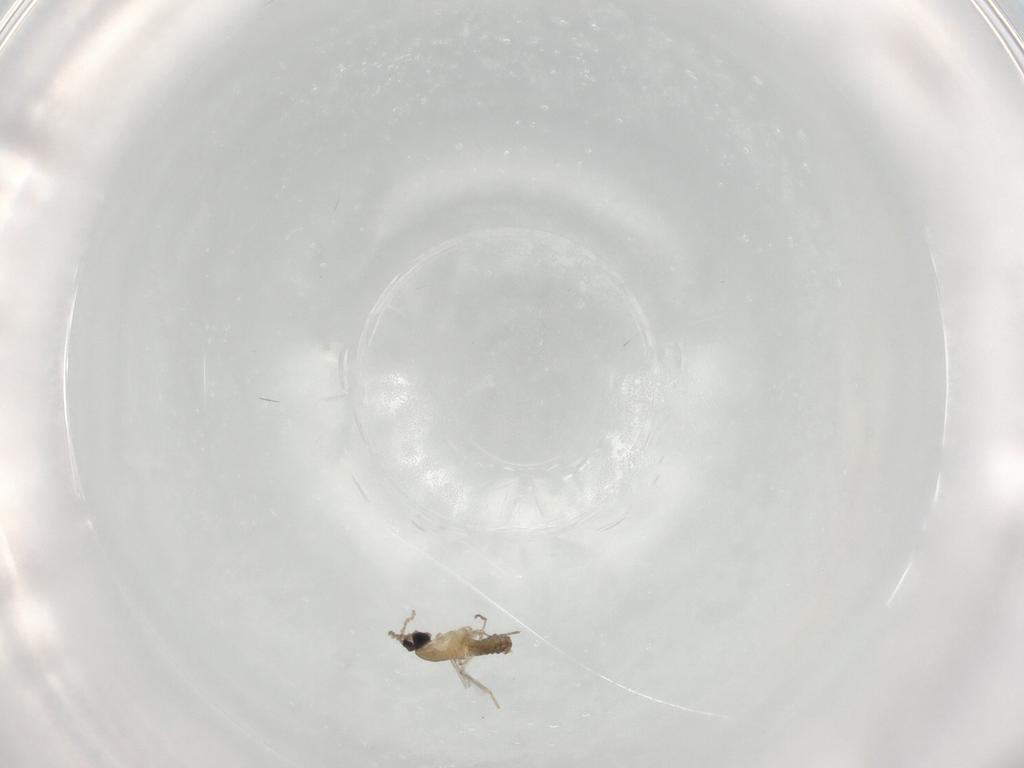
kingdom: Animalia
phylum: Arthropoda
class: Insecta
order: Diptera
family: Cecidomyiidae
